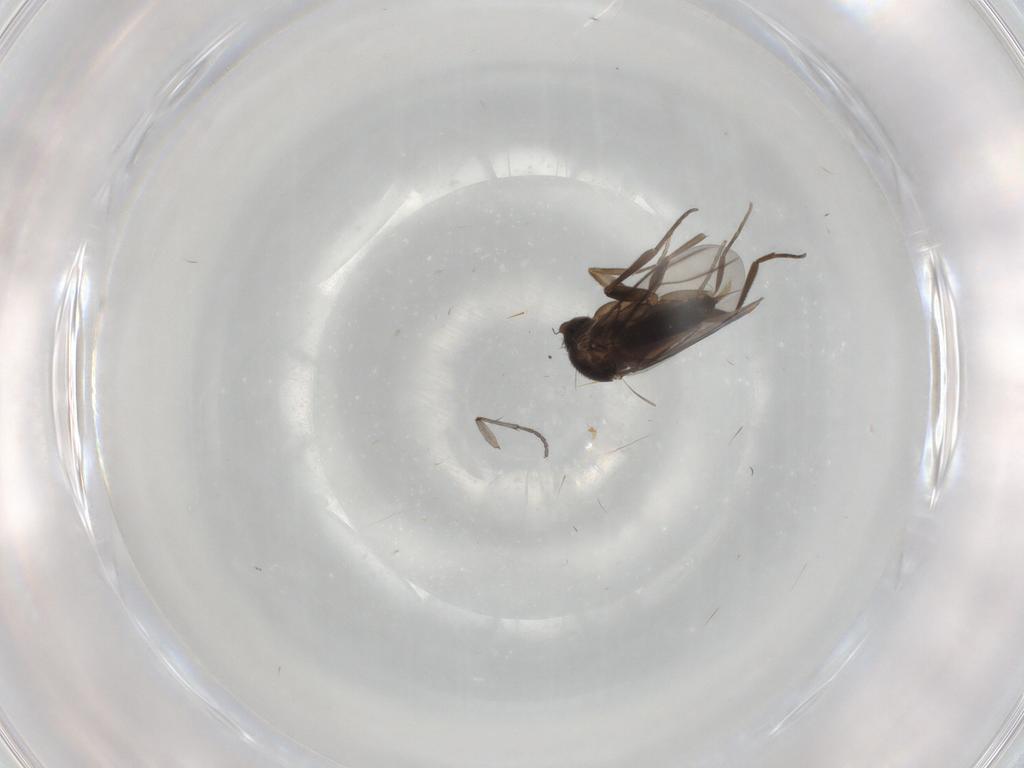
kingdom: Animalia
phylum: Arthropoda
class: Insecta
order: Diptera
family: Sciaridae
